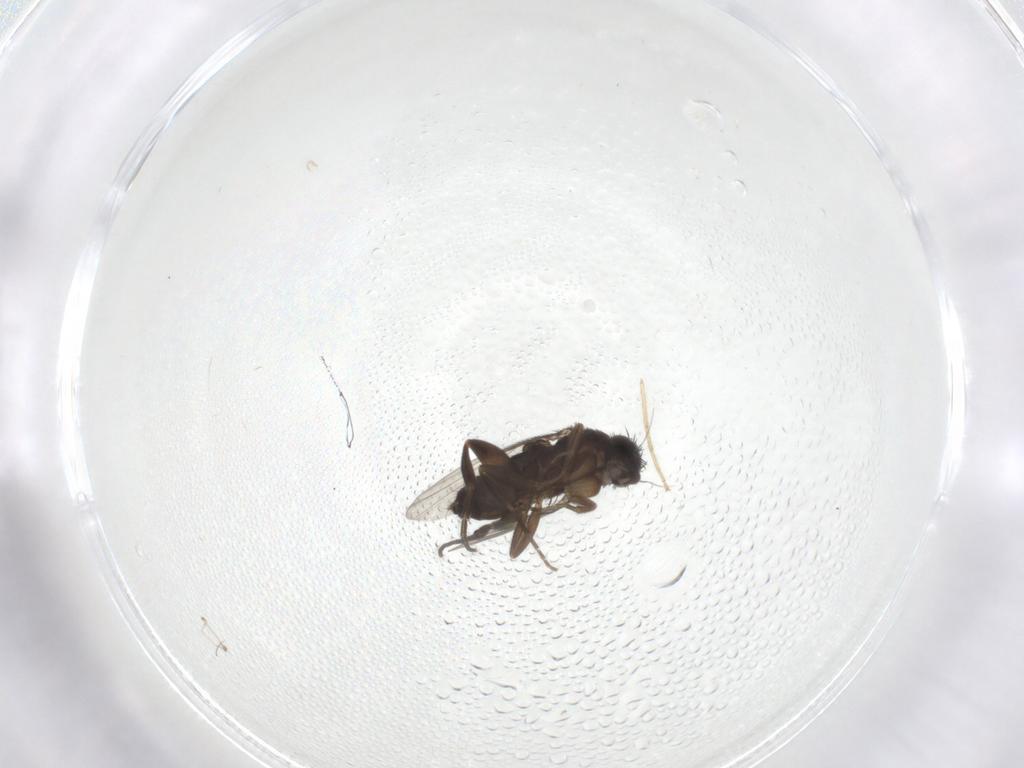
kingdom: Animalia
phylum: Arthropoda
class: Insecta
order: Diptera
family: Phoridae
